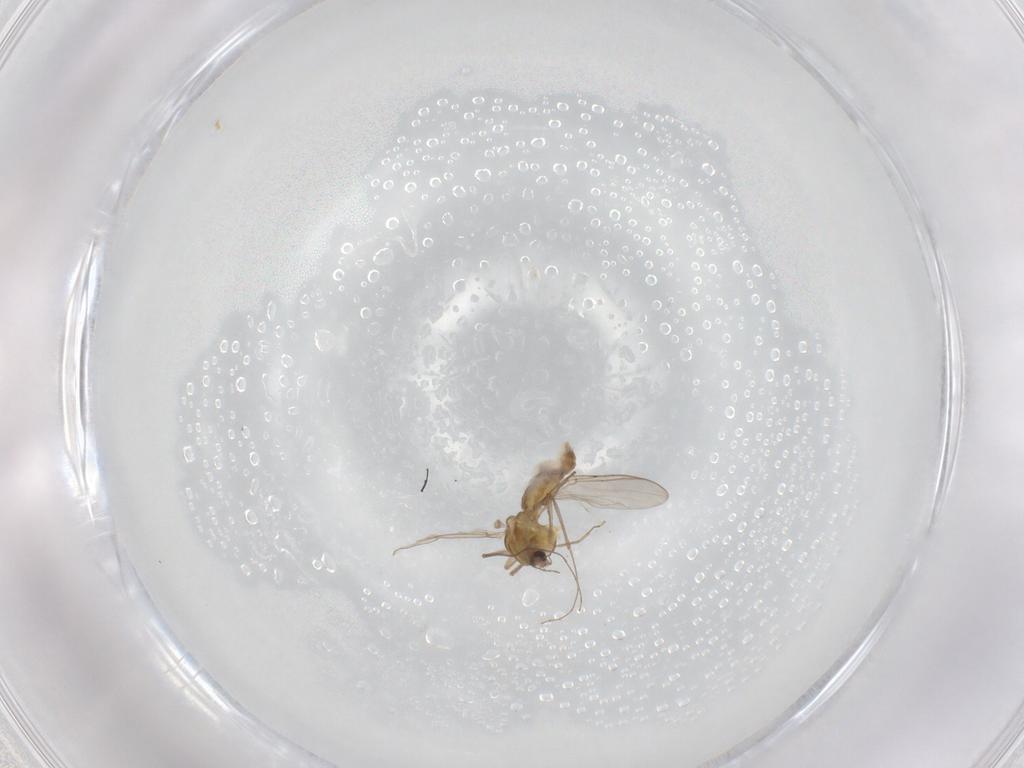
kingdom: Animalia
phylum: Arthropoda
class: Insecta
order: Diptera
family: Chironomidae
